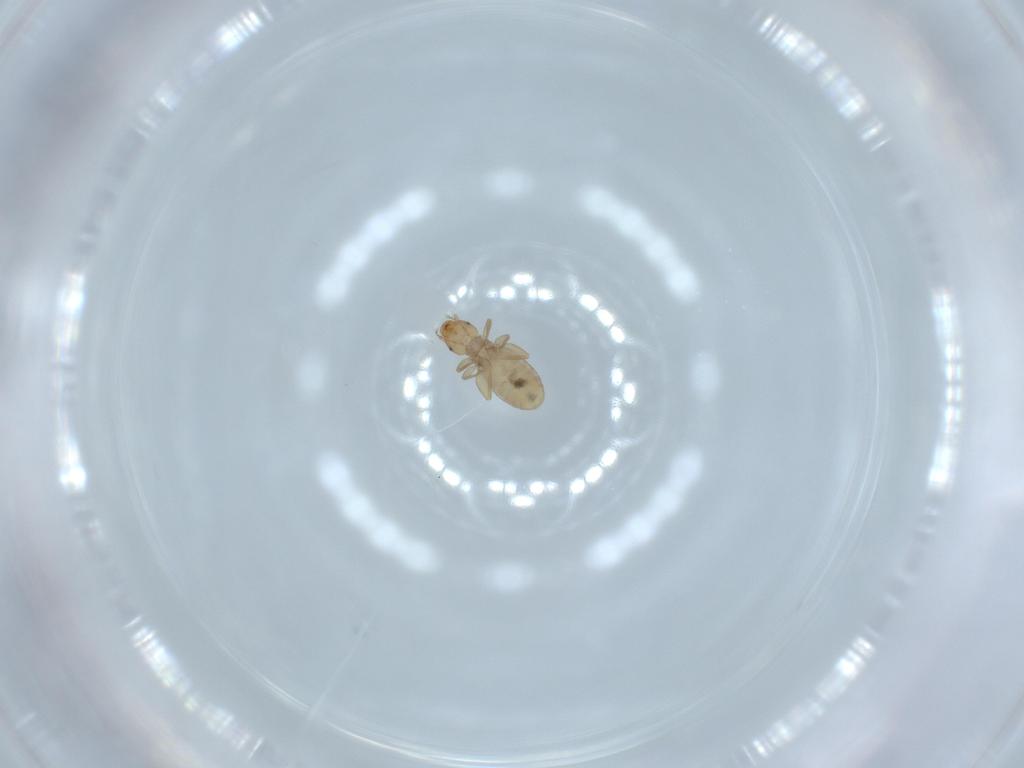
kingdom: Animalia
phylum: Arthropoda
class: Insecta
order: Psocodea
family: Liposcelididae
